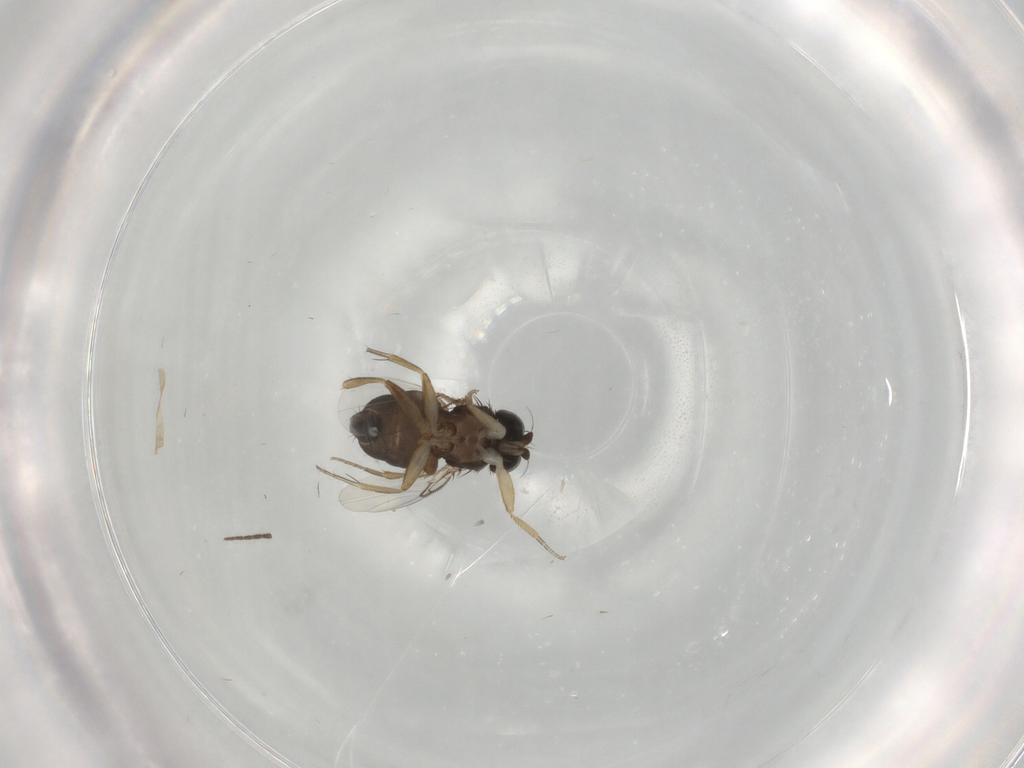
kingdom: Animalia
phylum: Arthropoda
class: Insecta
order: Diptera
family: Phoridae
